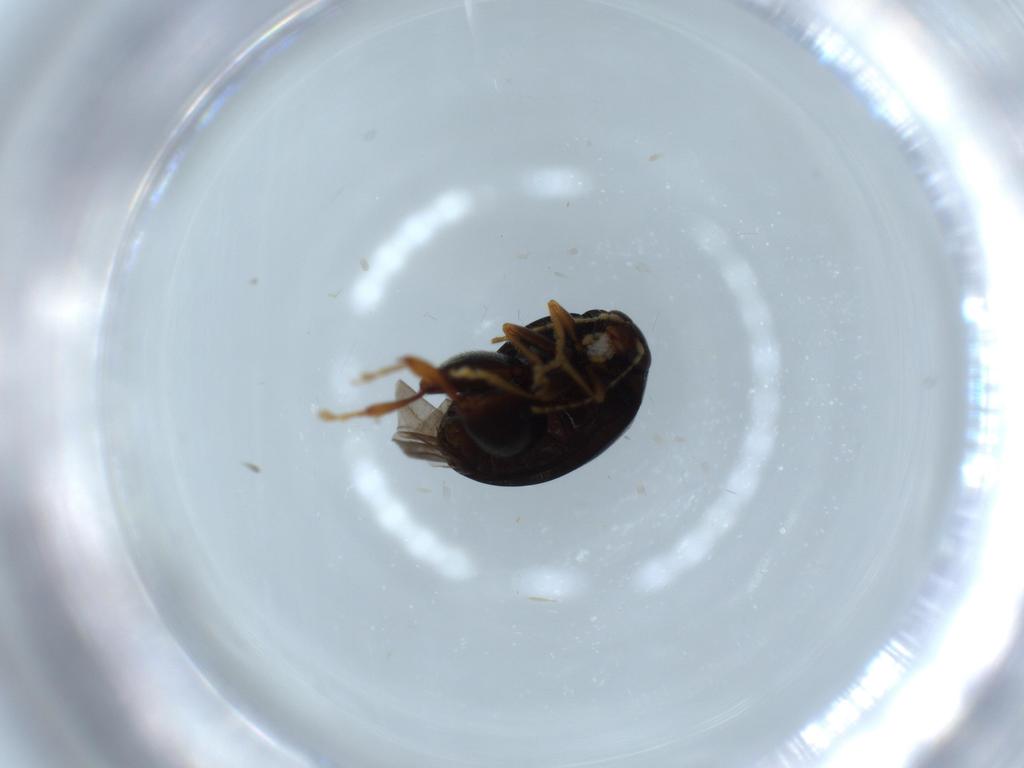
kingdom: Animalia
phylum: Arthropoda
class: Insecta
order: Coleoptera
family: Chrysomelidae
